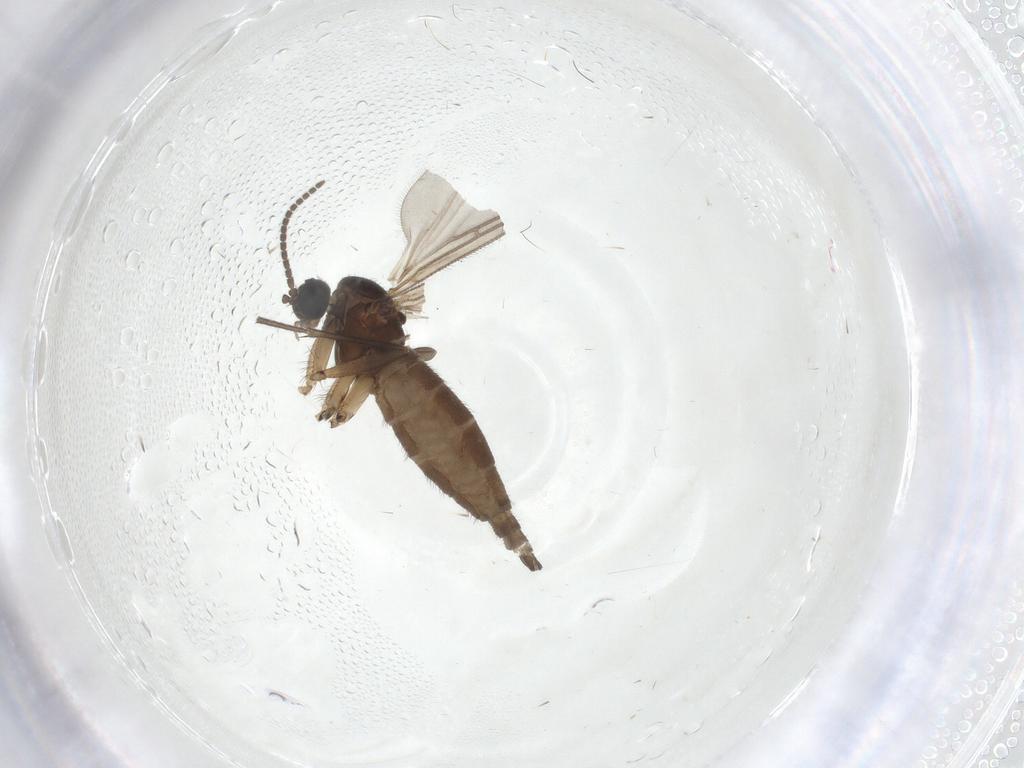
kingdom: Animalia
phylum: Arthropoda
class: Insecta
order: Diptera
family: Sciaridae
